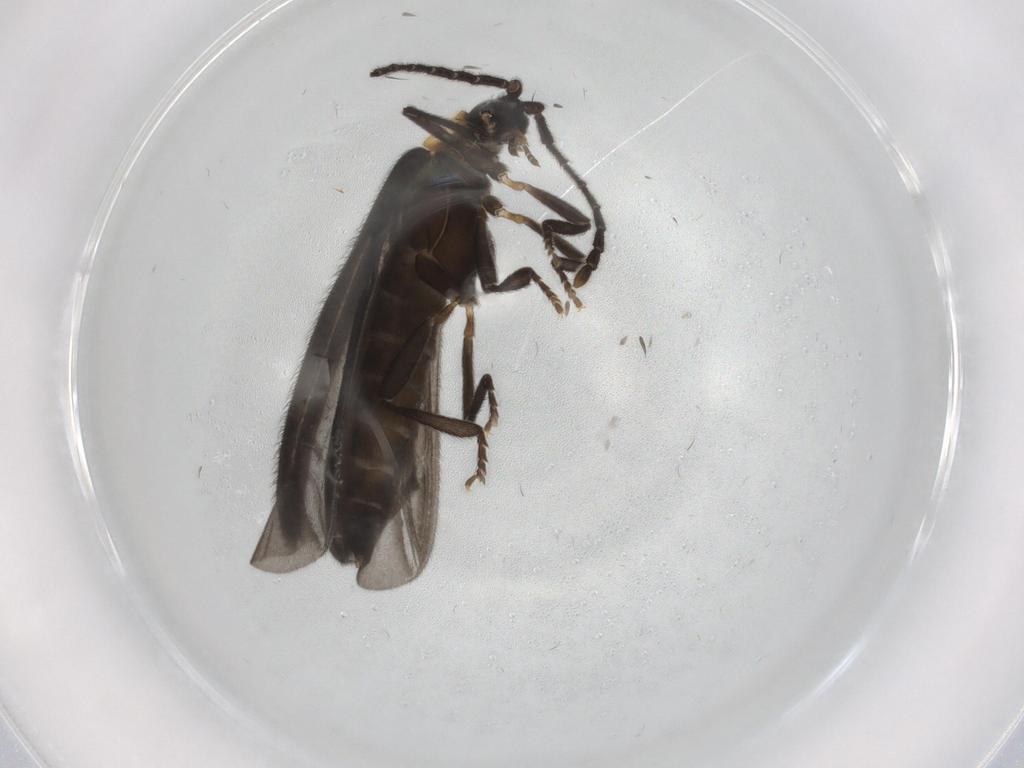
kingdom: Animalia
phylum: Arthropoda
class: Insecta
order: Coleoptera
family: Lycidae
